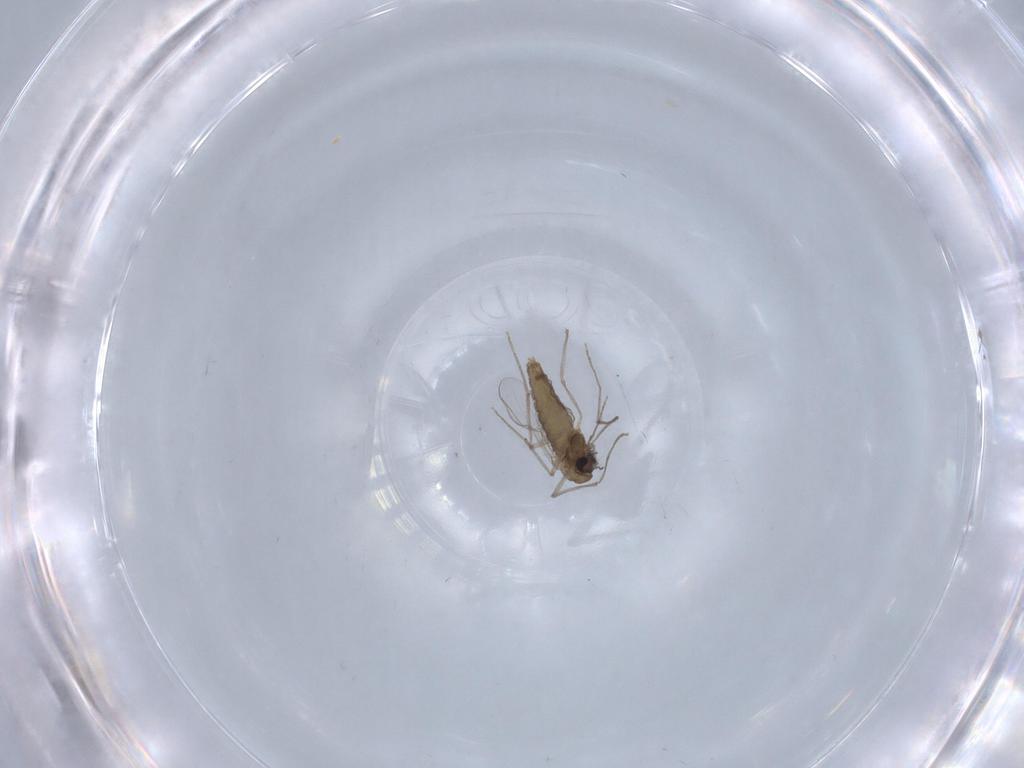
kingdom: Animalia
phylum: Arthropoda
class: Insecta
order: Diptera
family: Chironomidae
